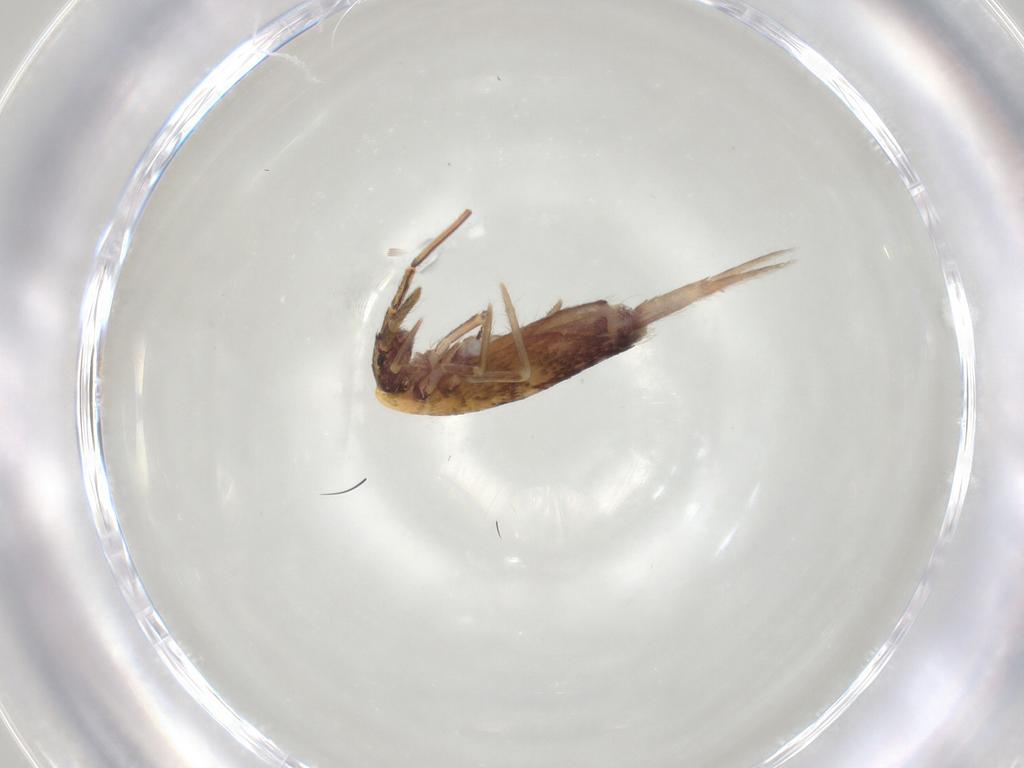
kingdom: Animalia
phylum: Arthropoda
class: Collembola
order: Entomobryomorpha
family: Entomobryidae
